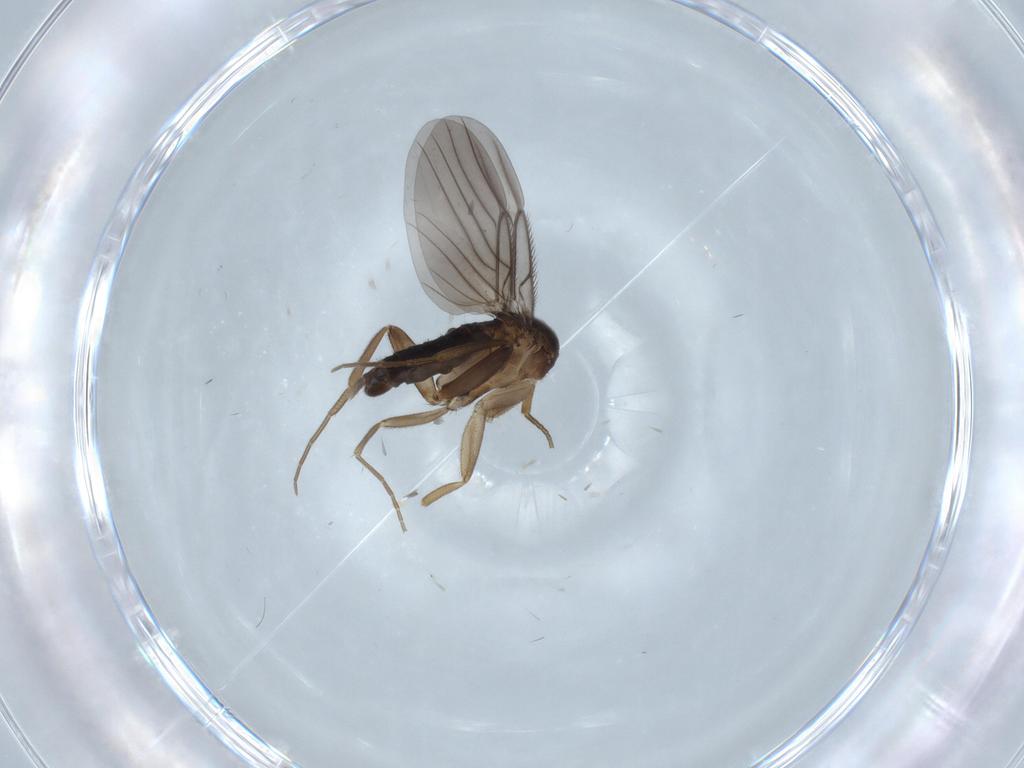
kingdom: Animalia
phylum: Arthropoda
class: Insecta
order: Diptera
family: Phoridae
